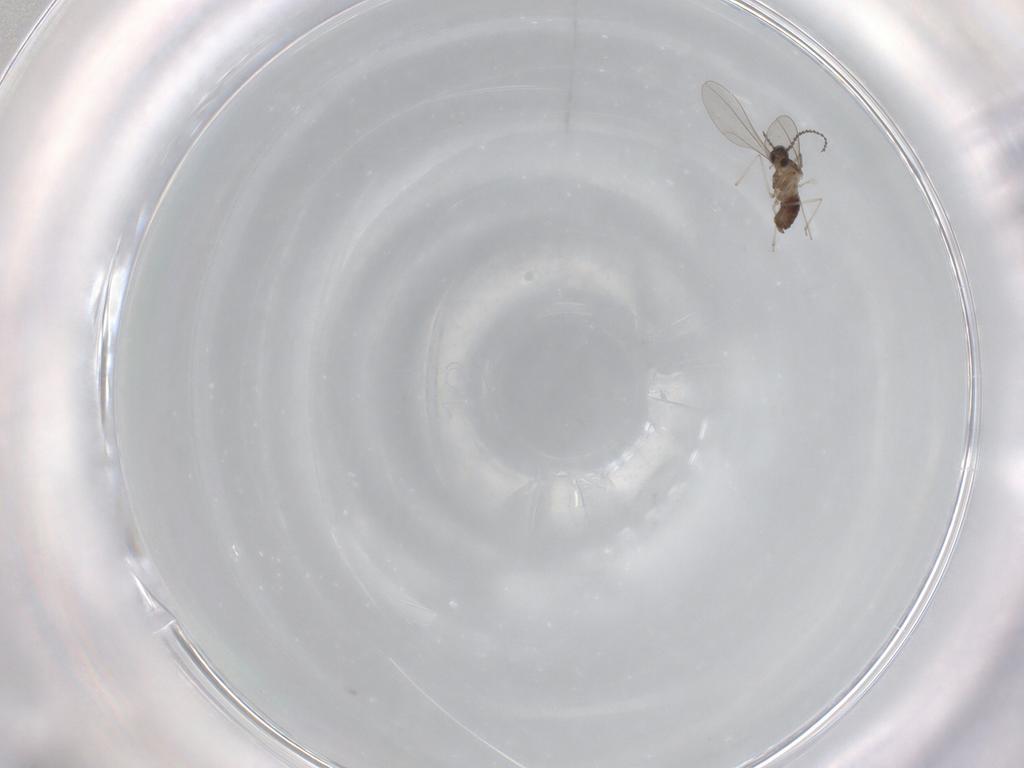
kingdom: Animalia
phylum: Arthropoda
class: Insecta
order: Diptera
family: Cecidomyiidae
